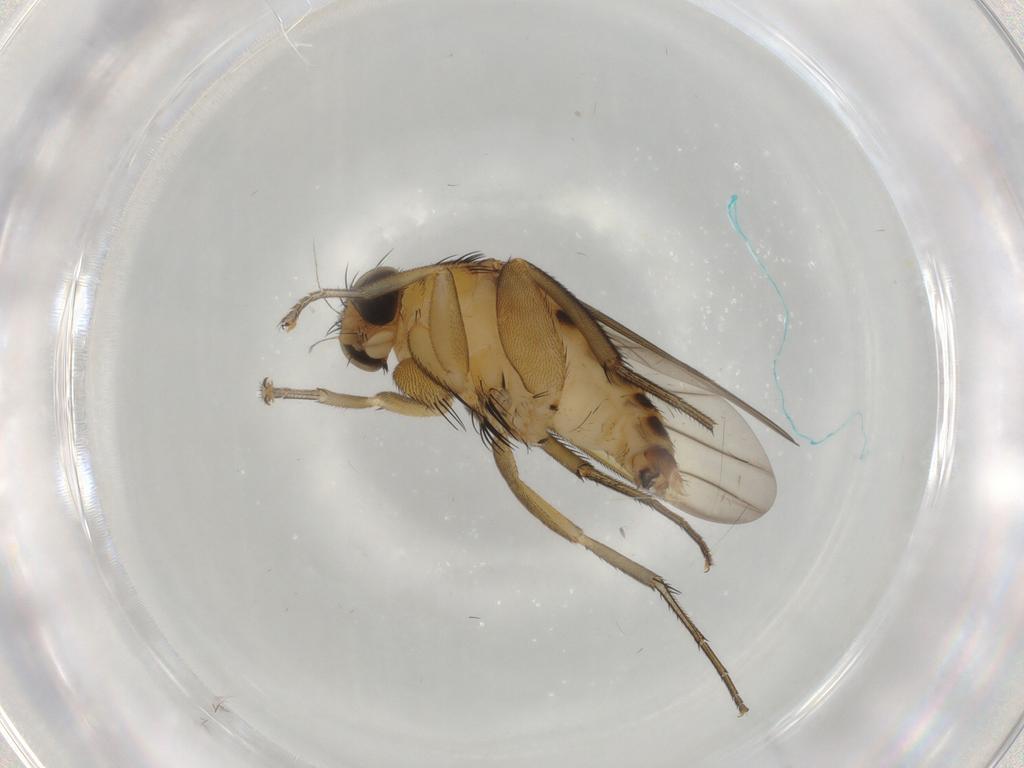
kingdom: Animalia
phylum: Arthropoda
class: Insecta
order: Diptera
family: Phoridae
